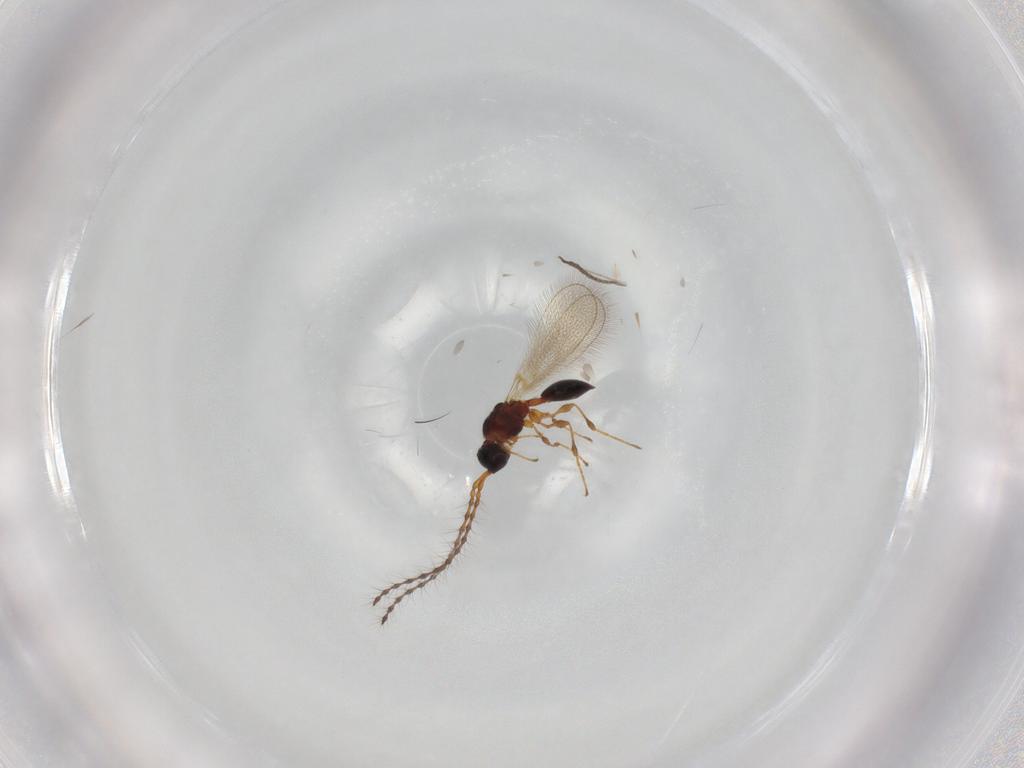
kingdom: Animalia
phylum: Arthropoda
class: Insecta
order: Hymenoptera
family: Diapriidae
